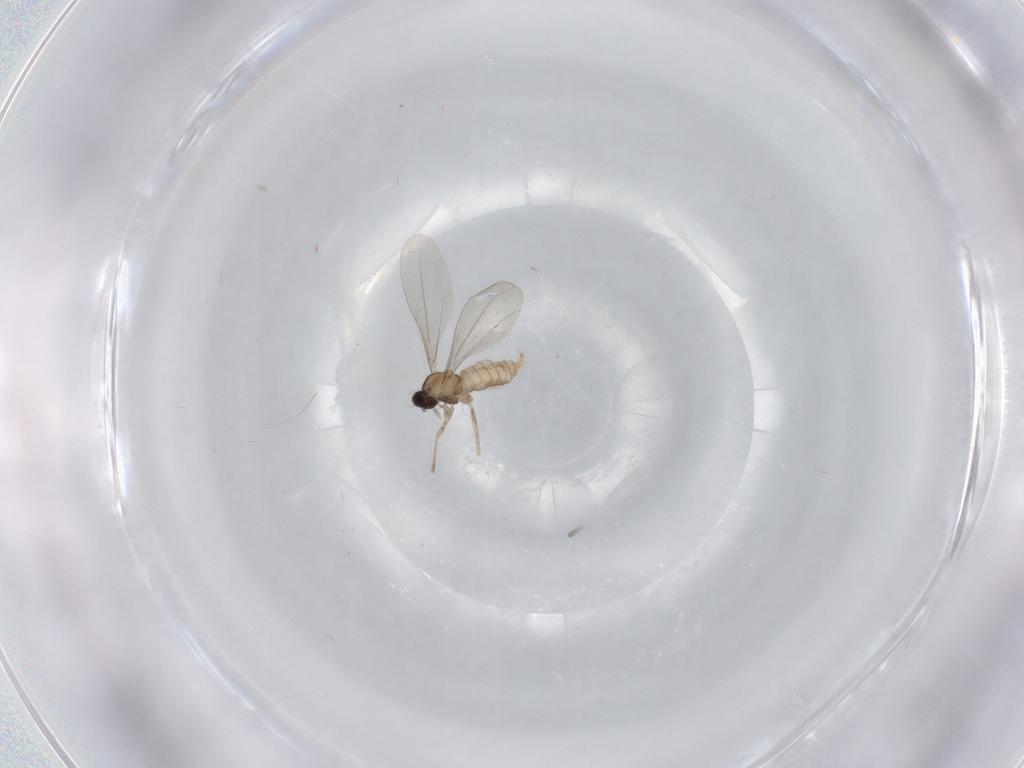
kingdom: Animalia
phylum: Arthropoda
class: Insecta
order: Diptera
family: Cecidomyiidae
